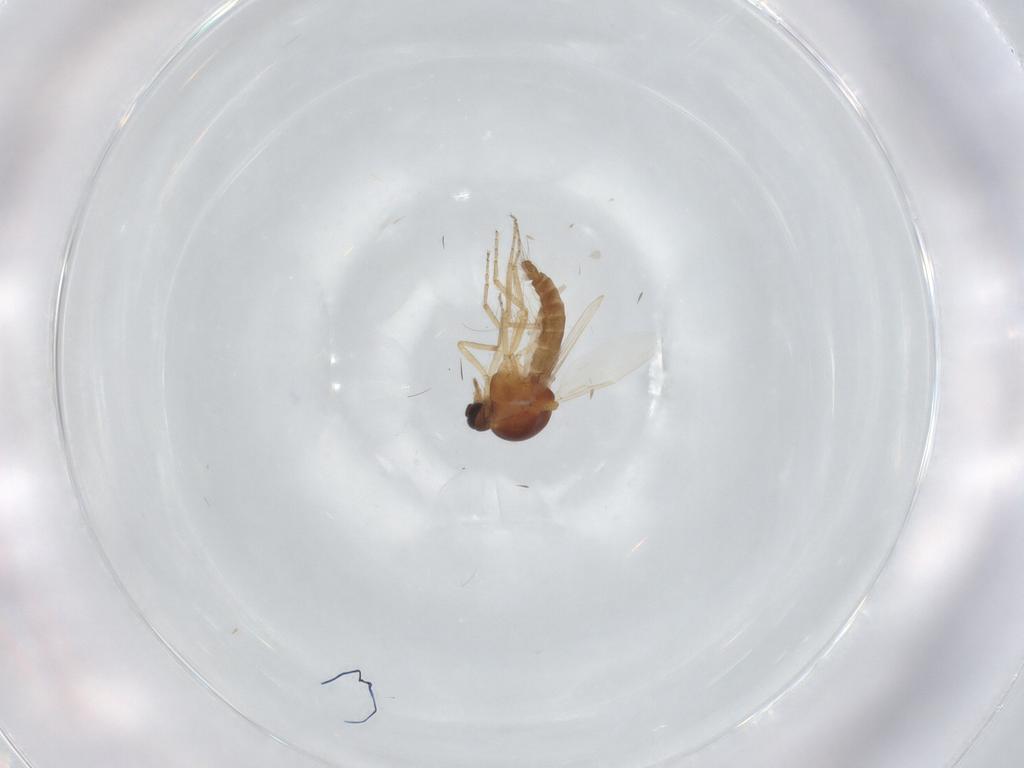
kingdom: Animalia
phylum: Arthropoda
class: Insecta
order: Diptera
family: Ceratopogonidae
